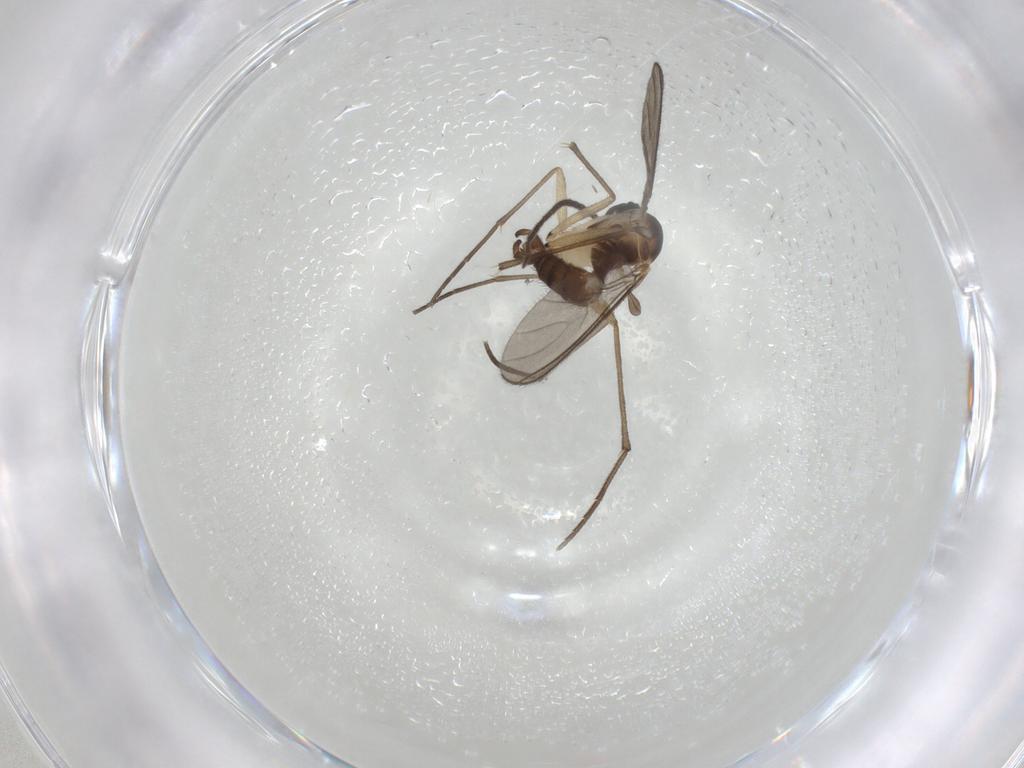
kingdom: Animalia
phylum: Arthropoda
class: Insecta
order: Diptera
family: Chironomidae
